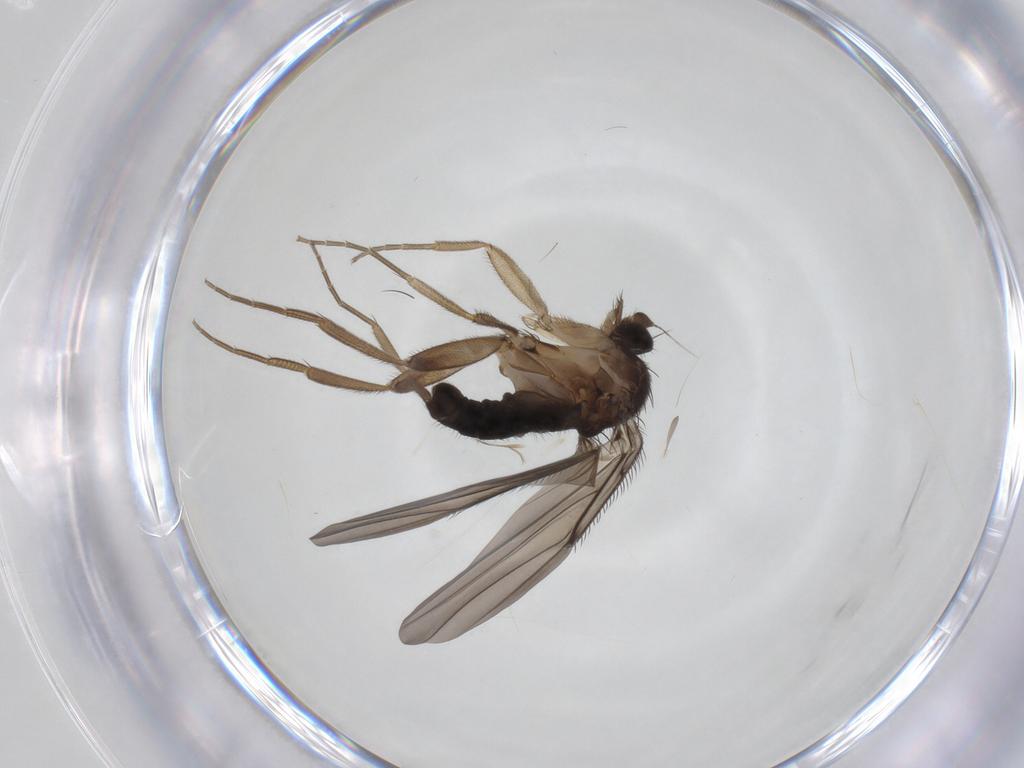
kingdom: Animalia
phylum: Arthropoda
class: Insecta
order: Diptera
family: Phoridae
